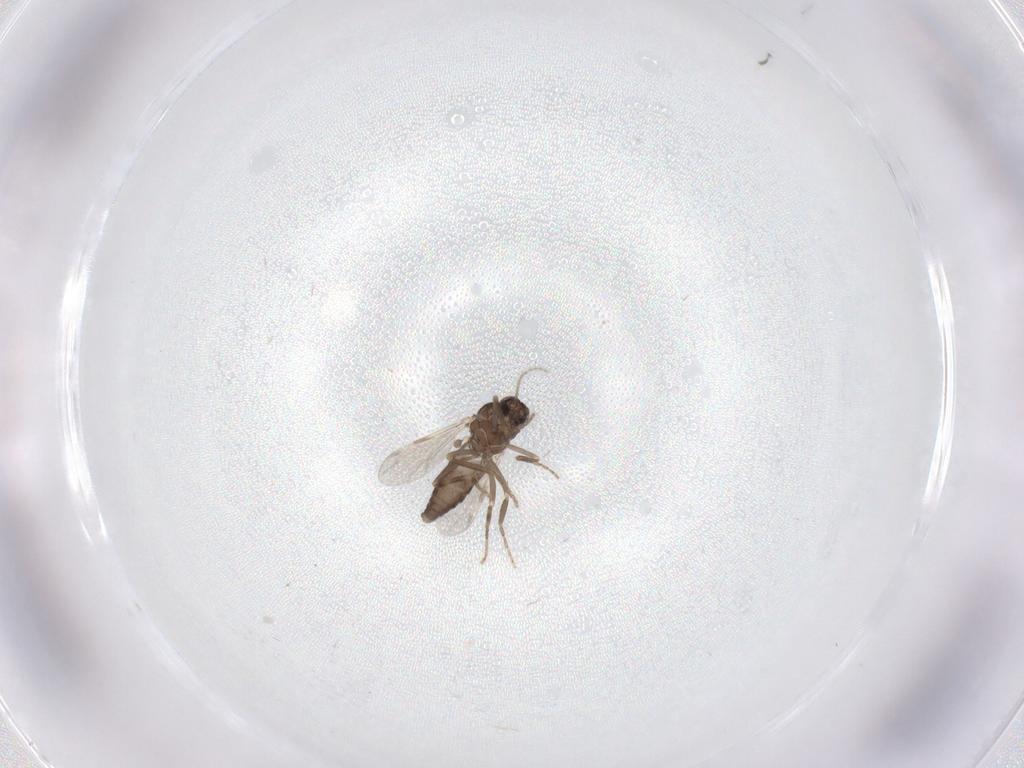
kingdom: Animalia
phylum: Arthropoda
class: Insecta
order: Diptera
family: Ceratopogonidae
